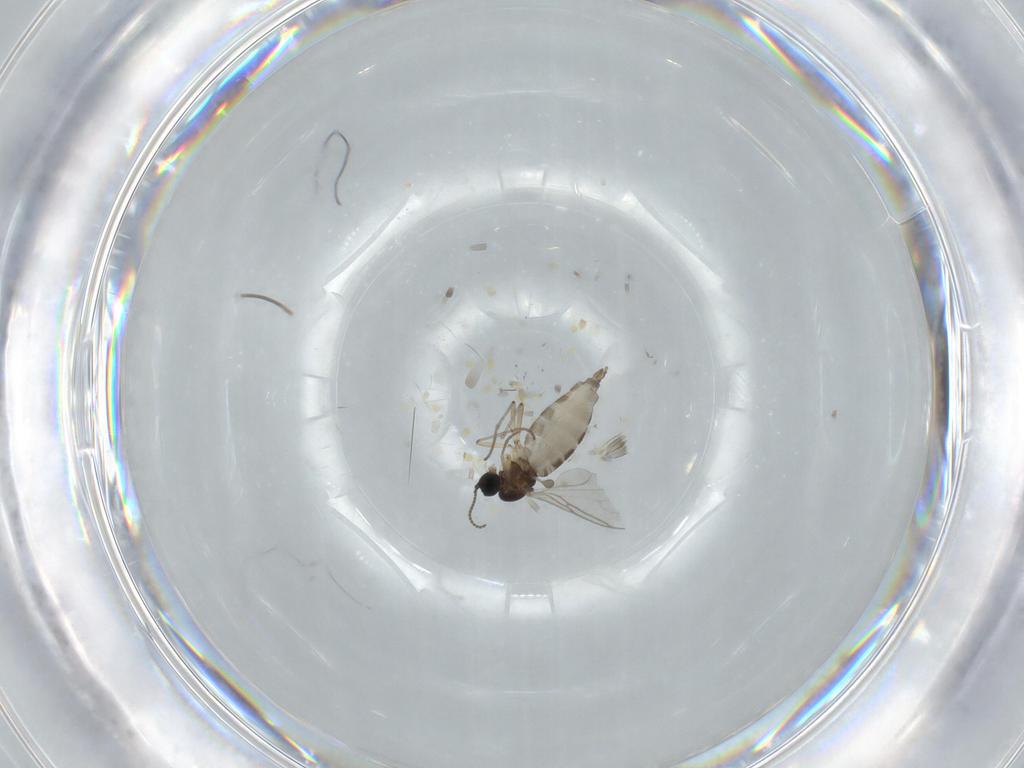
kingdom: Animalia
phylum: Arthropoda
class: Insecta
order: Diptera
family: Sciaridae
